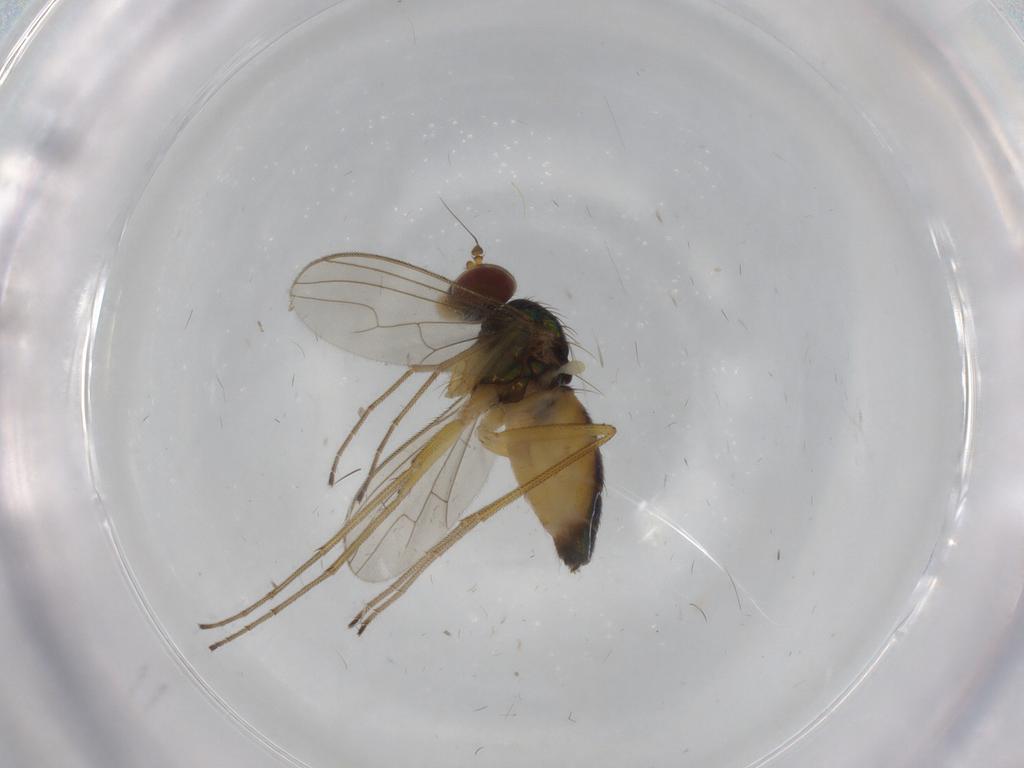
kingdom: Animalia
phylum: Arthropoda
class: Insecta
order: Diptera
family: Dolichopodidae
